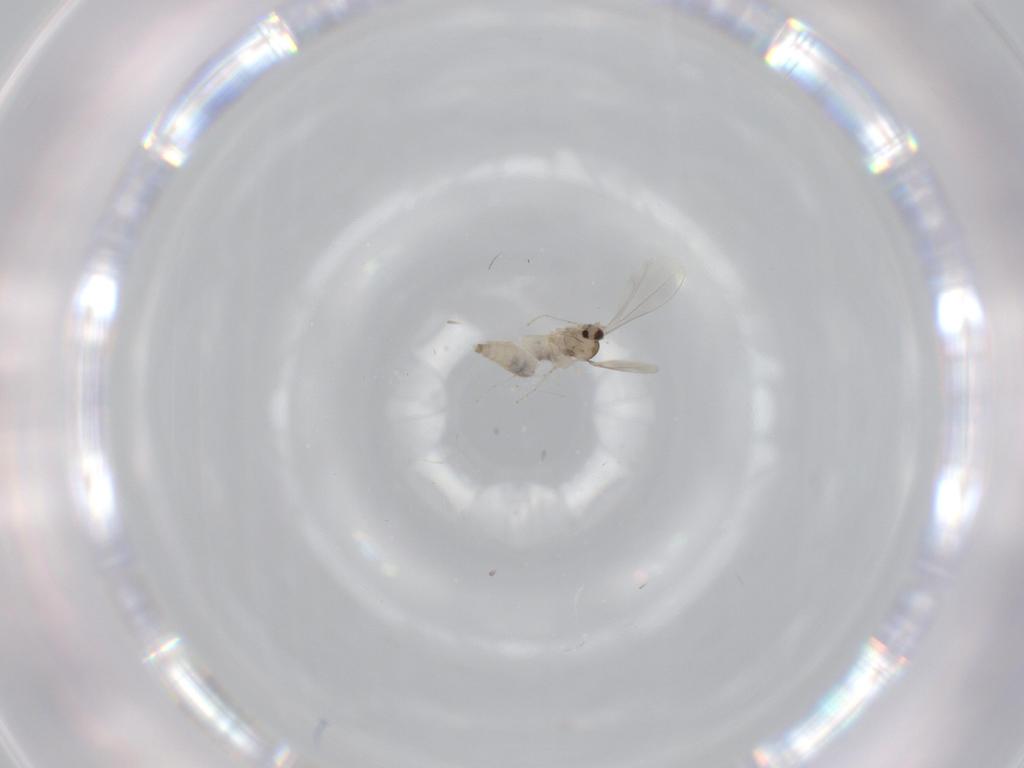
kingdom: Animalia
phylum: Arthropoda
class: Insecta
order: Diptera
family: Cecidomyiidae
